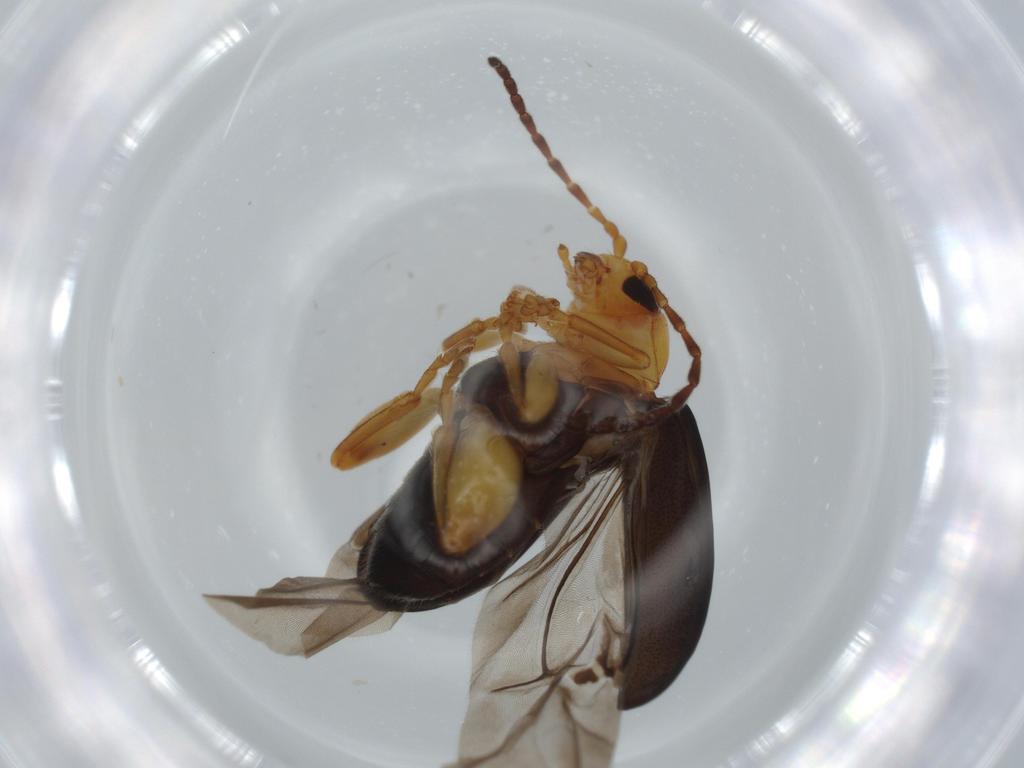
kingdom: Animalia
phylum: Arthropoda
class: Insecta
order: Coleoptera
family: Chrysomelidae
